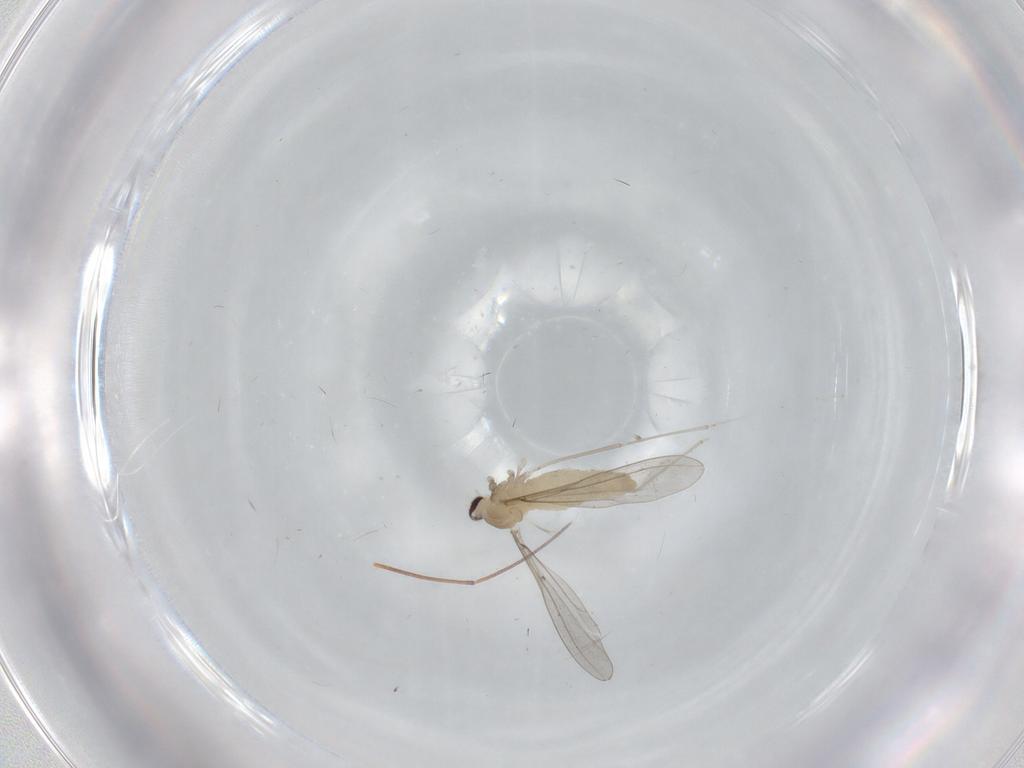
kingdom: Animalia
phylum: Arthropoda
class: Insecta
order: Diptera
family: Cecidomyiidae
